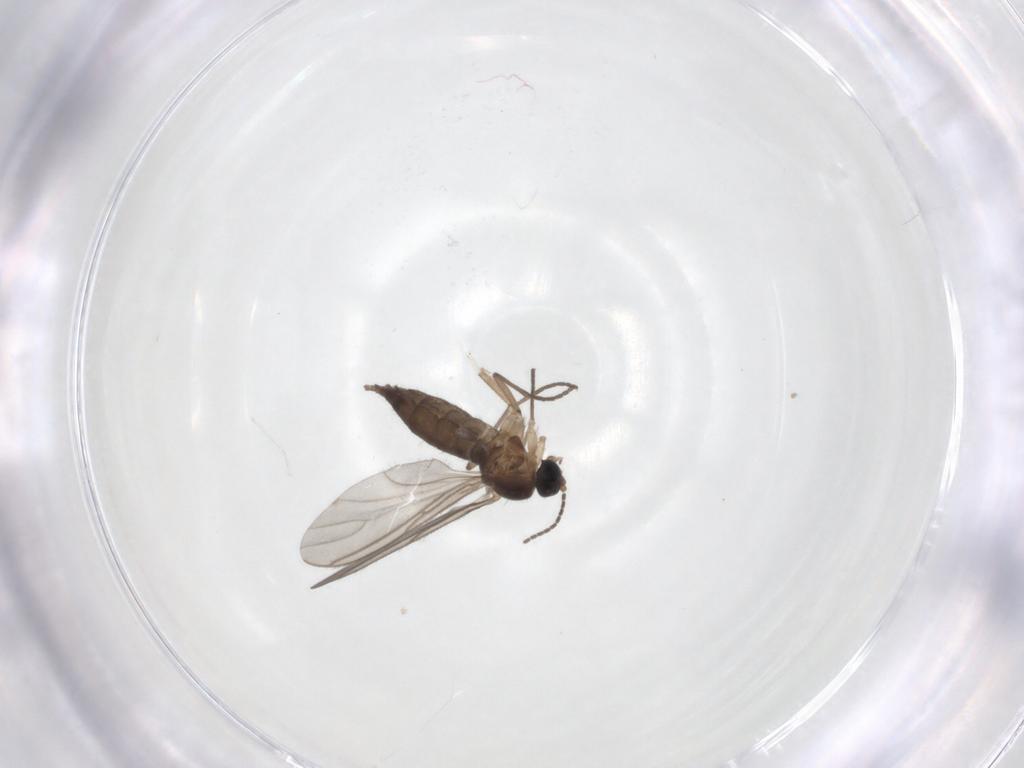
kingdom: Animalia
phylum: Arthropoda
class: Insecta
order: Diptera
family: Sciaridae
